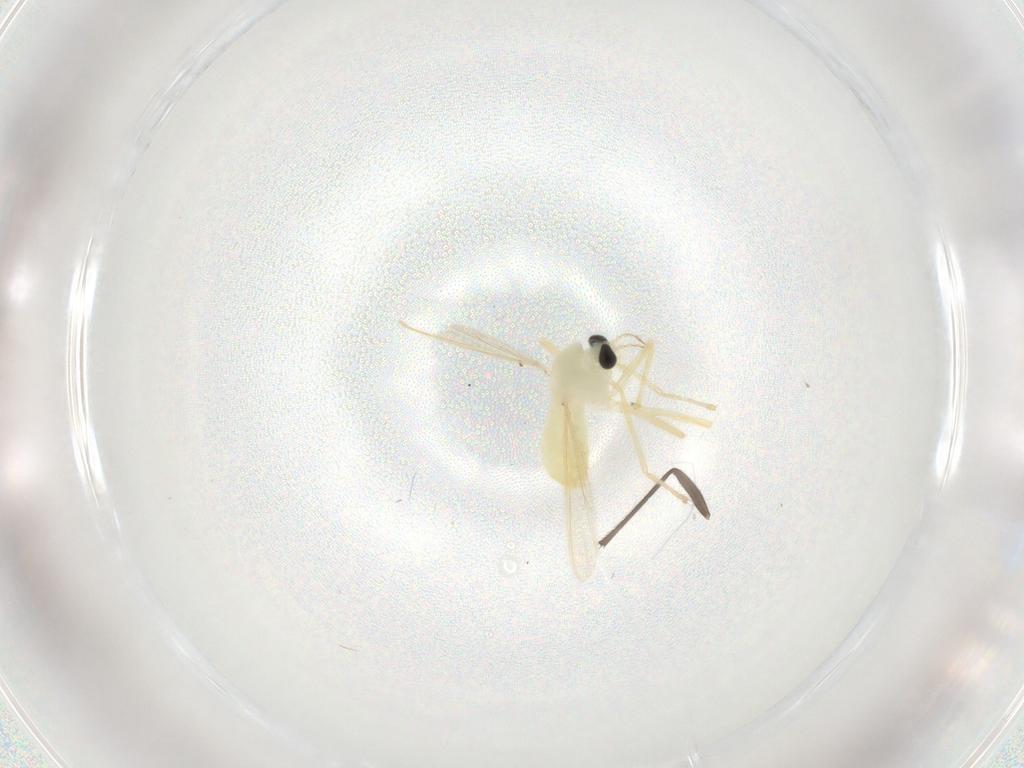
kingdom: Animalia
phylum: Arthropoda
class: Insecta
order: Diptera
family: Chironomidae
